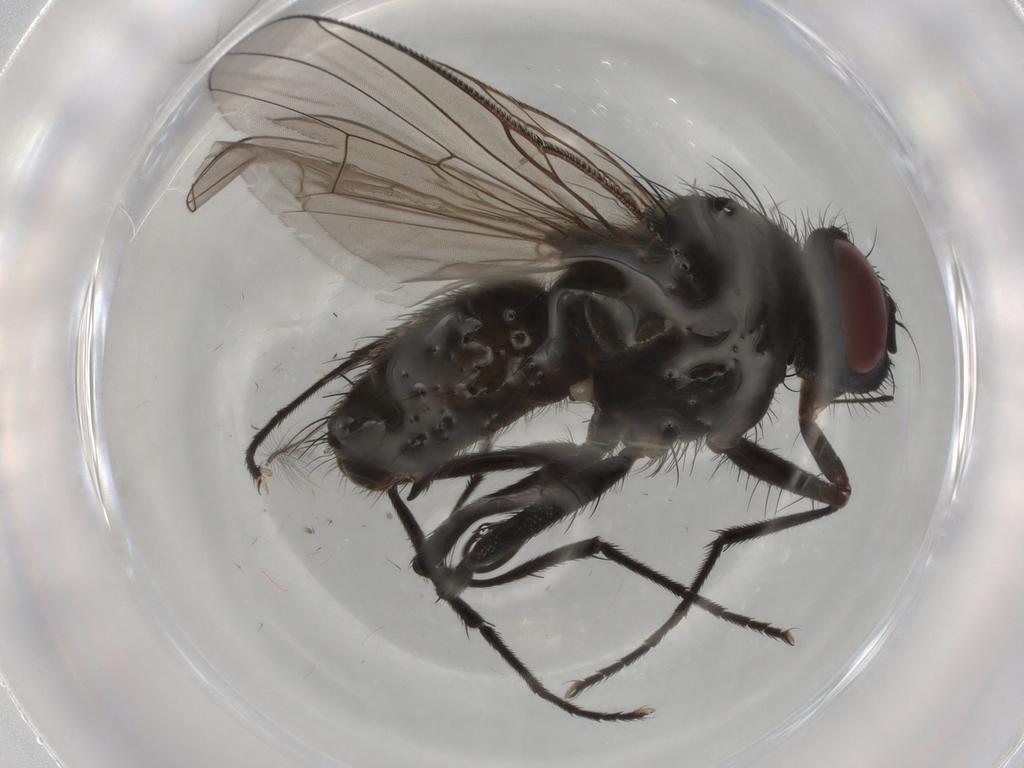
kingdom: Animalia
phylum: Arthropoda
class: Insecta
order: Diptera
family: Muscidae
